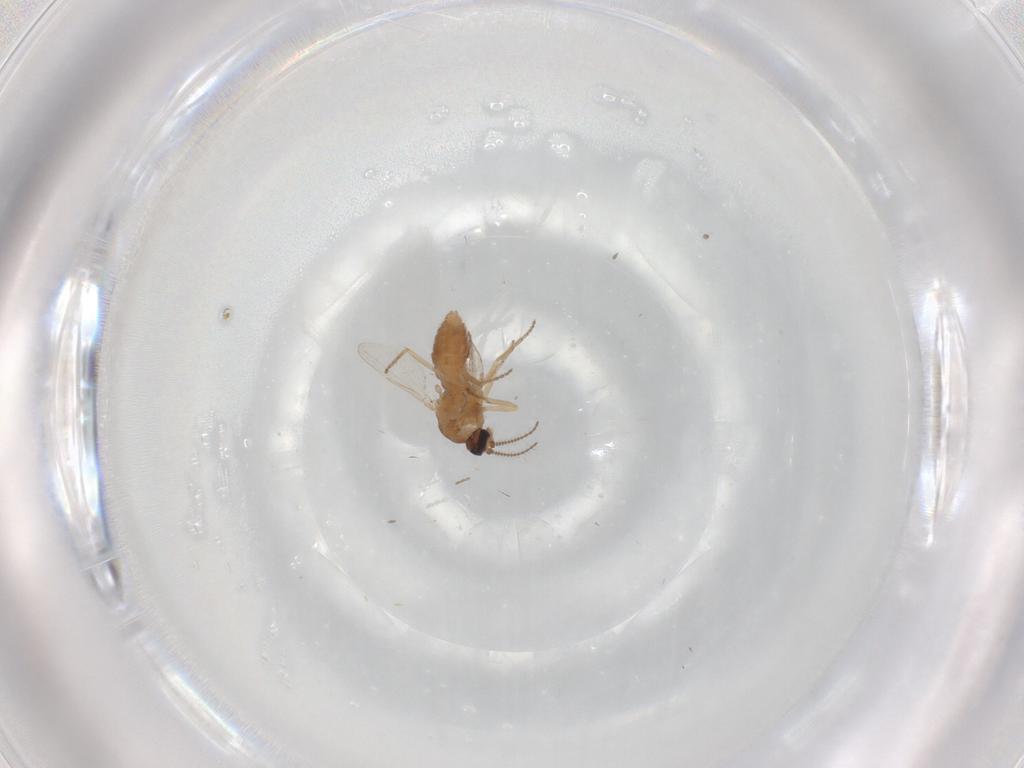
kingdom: Animalia
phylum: Arthropoda
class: Insecta
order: Diptera
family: Ceratopogonidae
